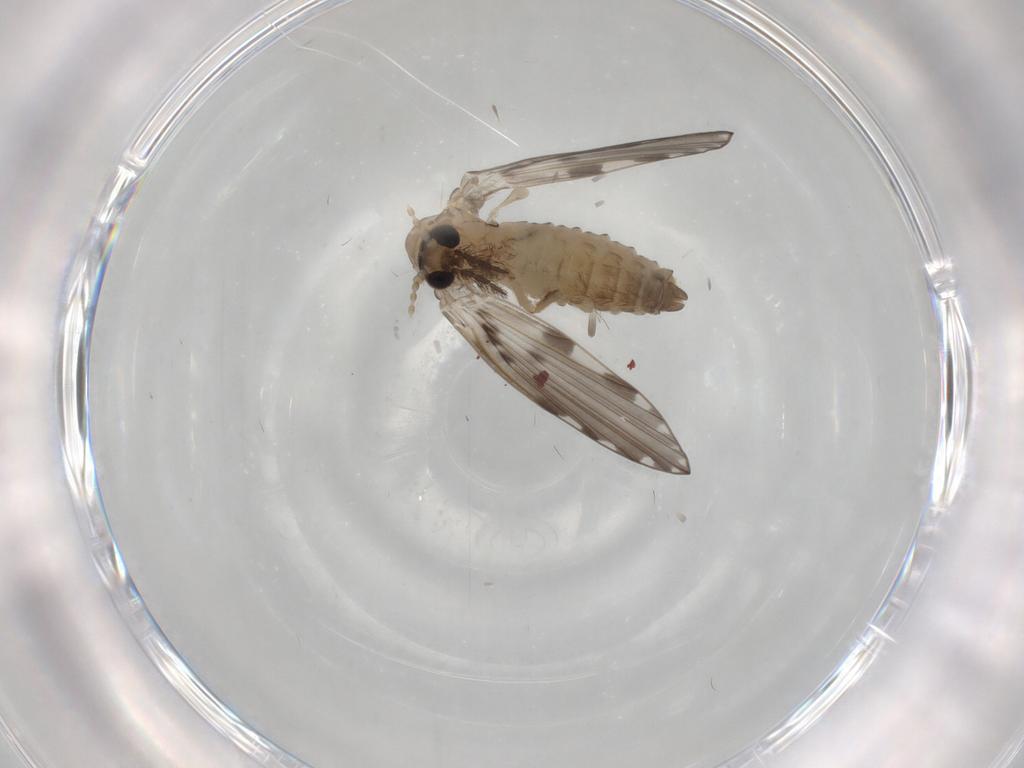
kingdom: Animalia
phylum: Arthropoda
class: Insecta
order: Diptera
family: Psychodidae
